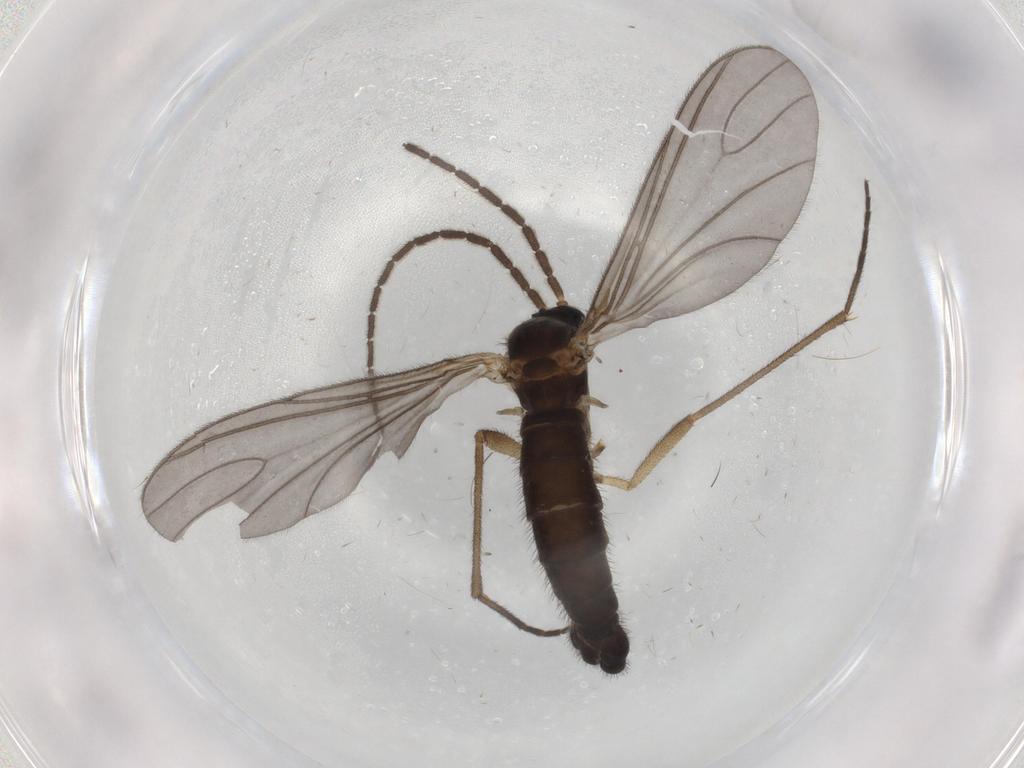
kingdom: Animalia
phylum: Arthropoda
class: Insecta
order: Diptera
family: Sciaridae
